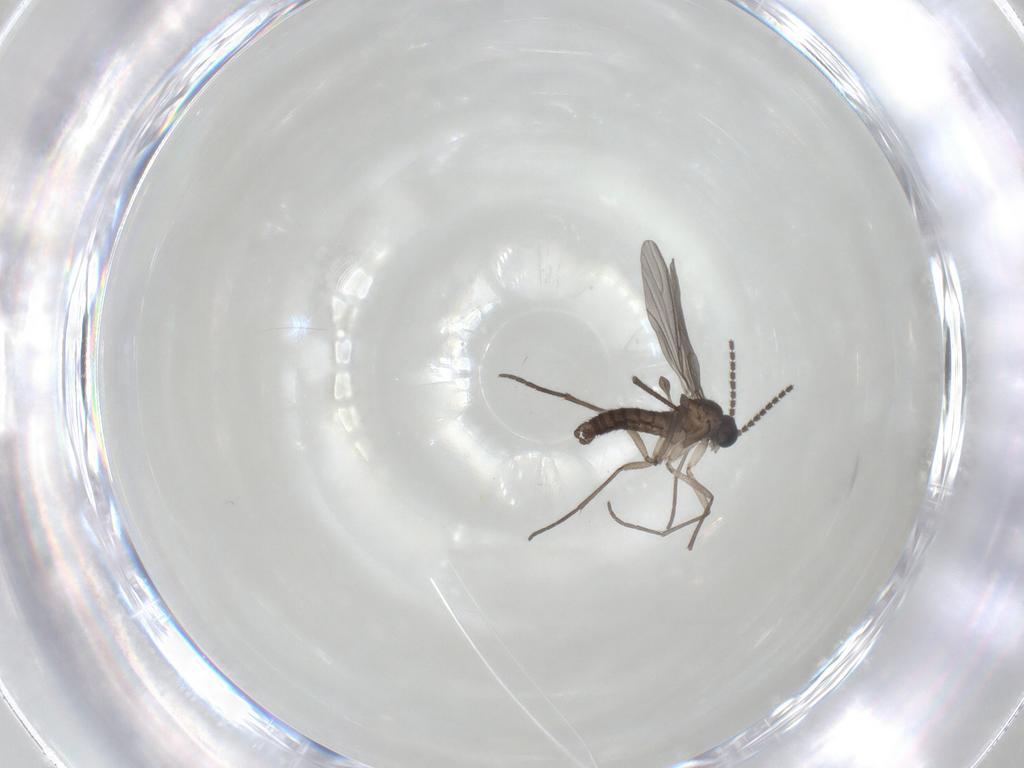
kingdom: Animalia
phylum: Arthropoda
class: Insecta
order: Diptera
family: Sciaridae
